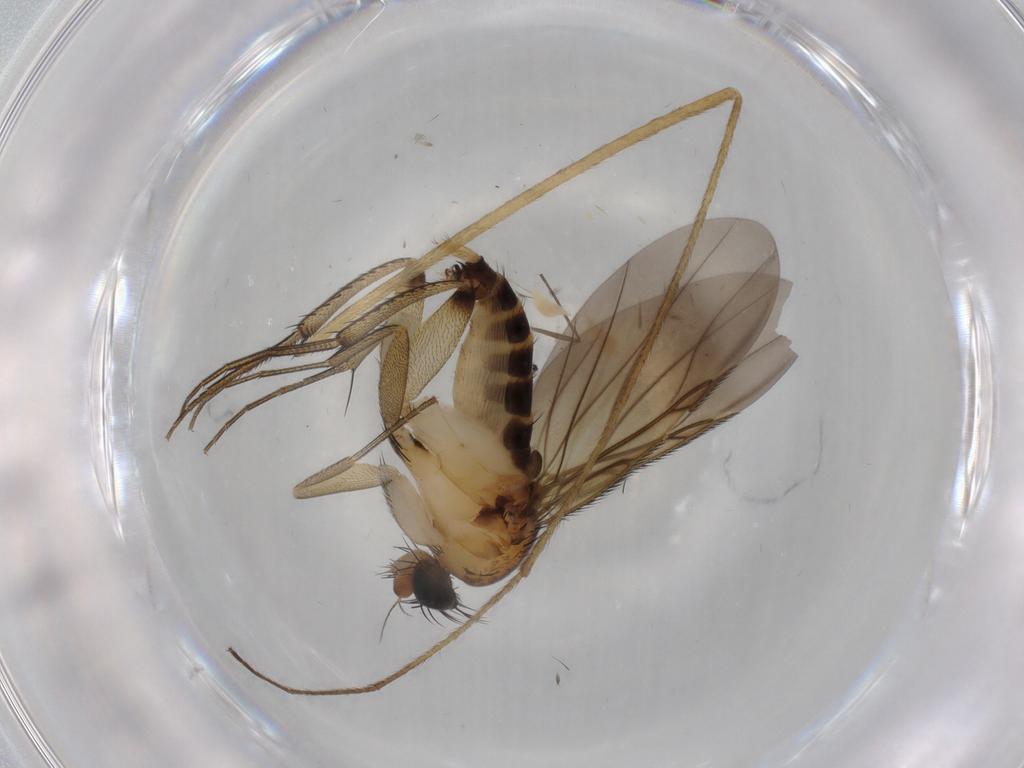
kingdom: Animalia
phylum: Arthropoda
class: Insecta
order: Diptera
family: Phoridae
